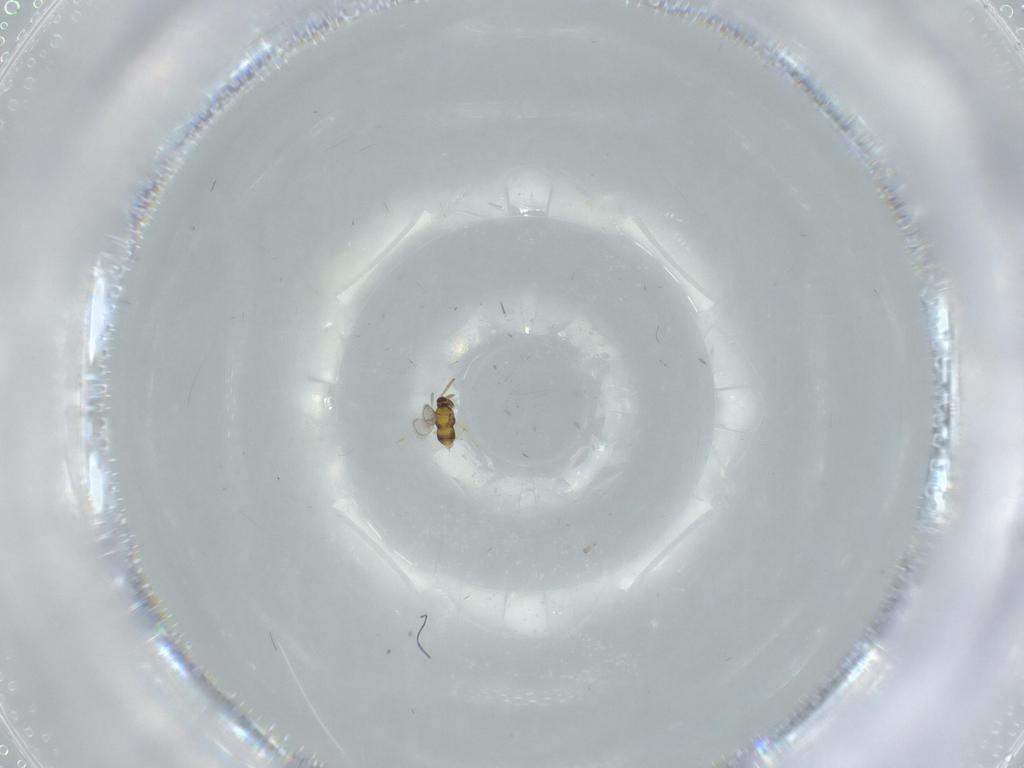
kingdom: Animalia
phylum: Arthropoda
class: Insecta
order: Hymenoptera
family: Aphelinidae
